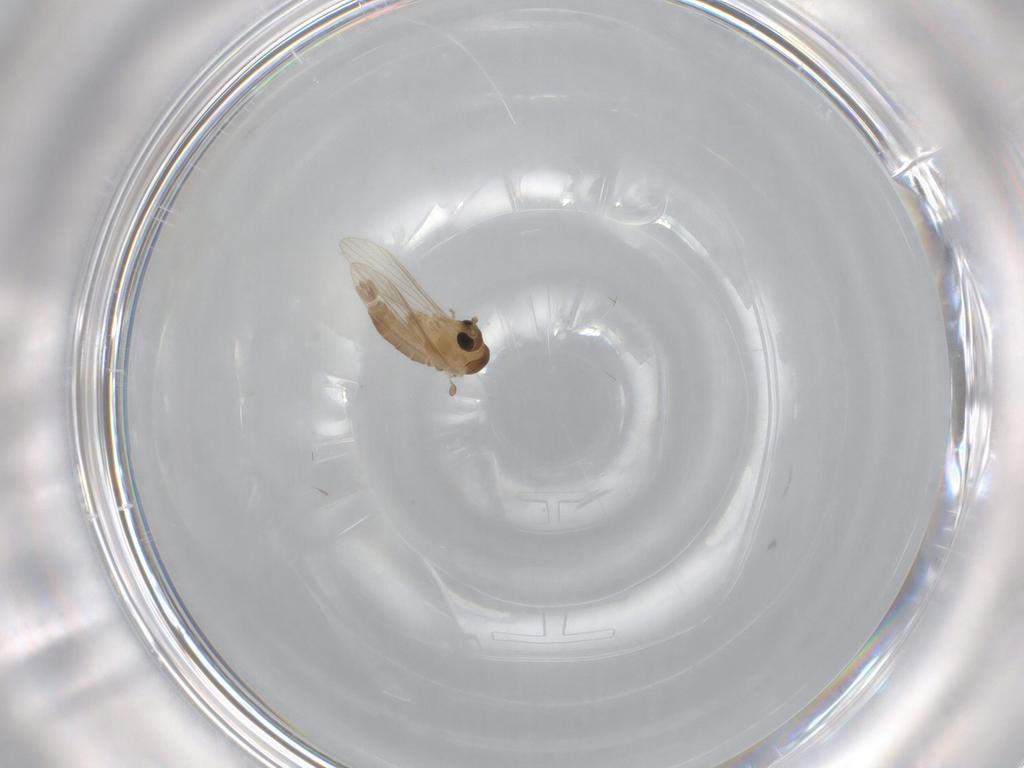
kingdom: Animalia
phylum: Arthropoda
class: Insecta
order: Diptera
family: Psychodidae
